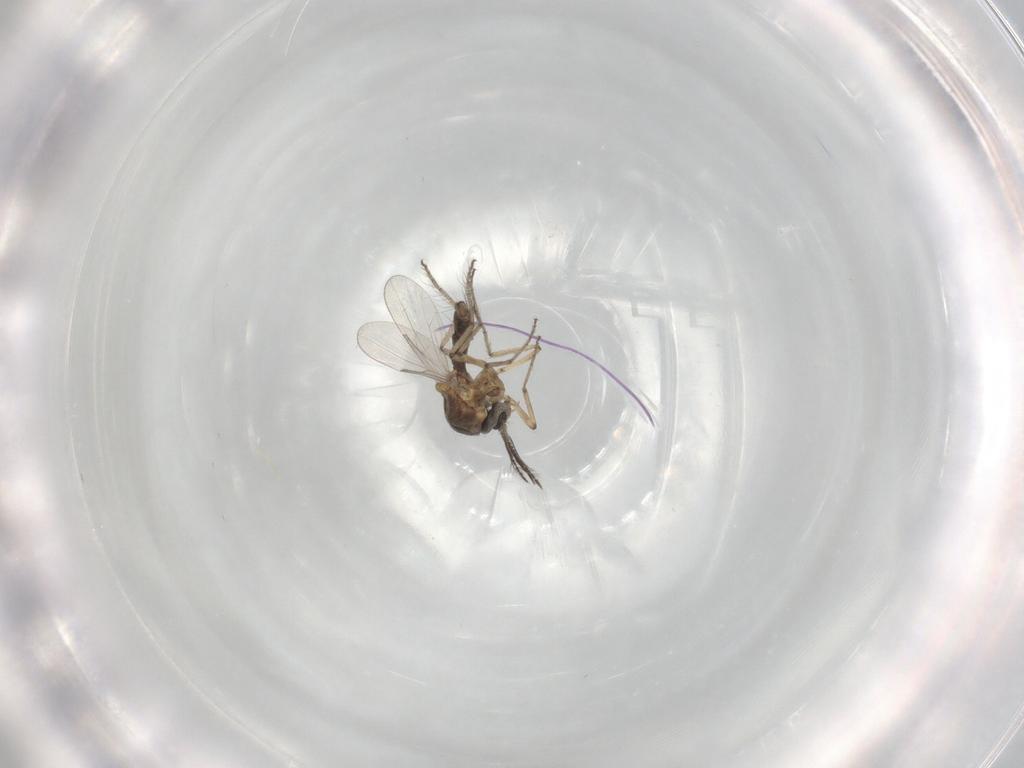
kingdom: Animalia
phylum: Arthropoda
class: Insecta
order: Diptera
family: Ceratopogonidae
